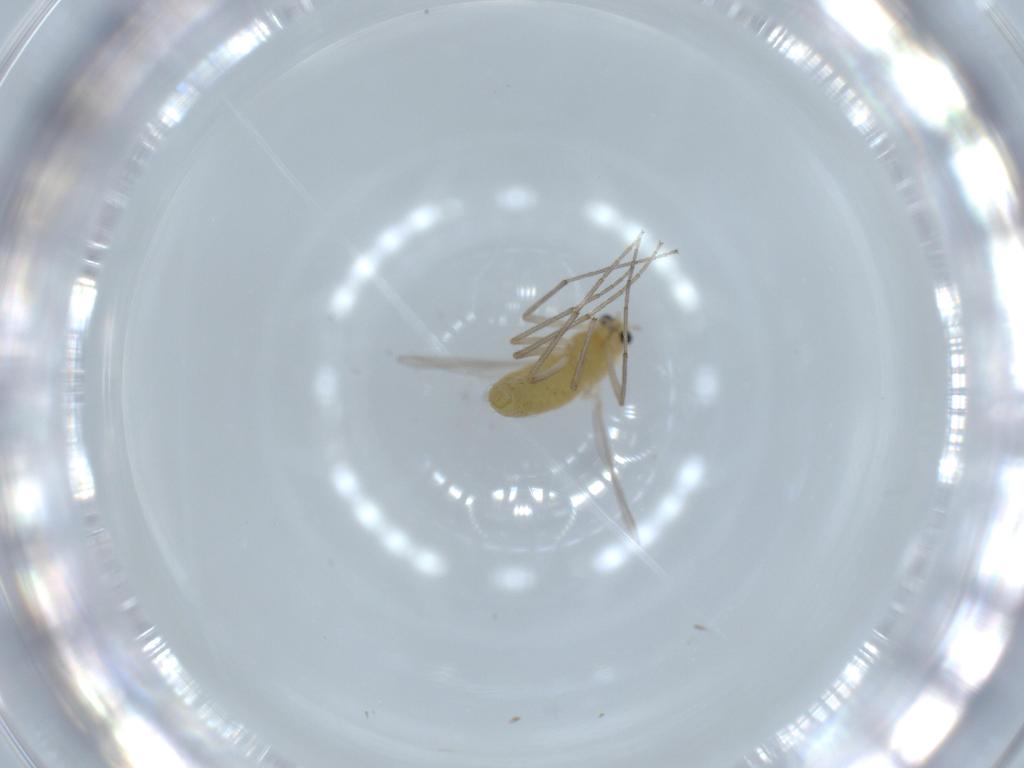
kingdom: Animalia
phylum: Arthropoda
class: Insecta
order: Diptera
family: Chironomidae
